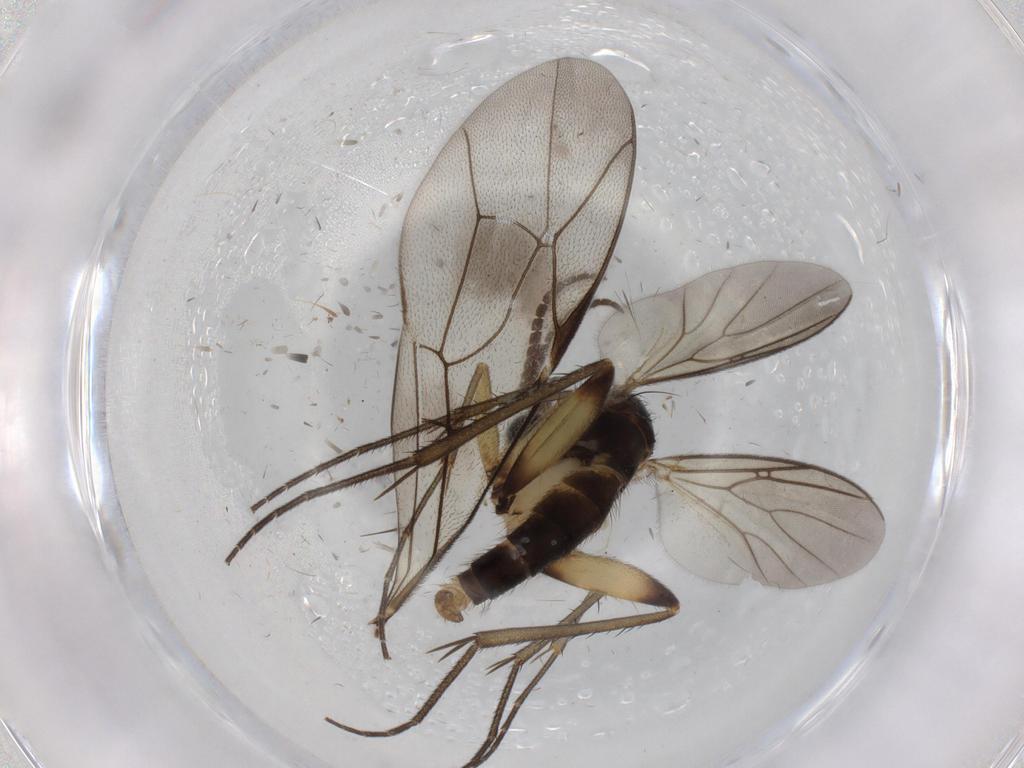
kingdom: Animalia
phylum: Arthropoda
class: Insecta
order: Diptera
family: Mycetophilidae
